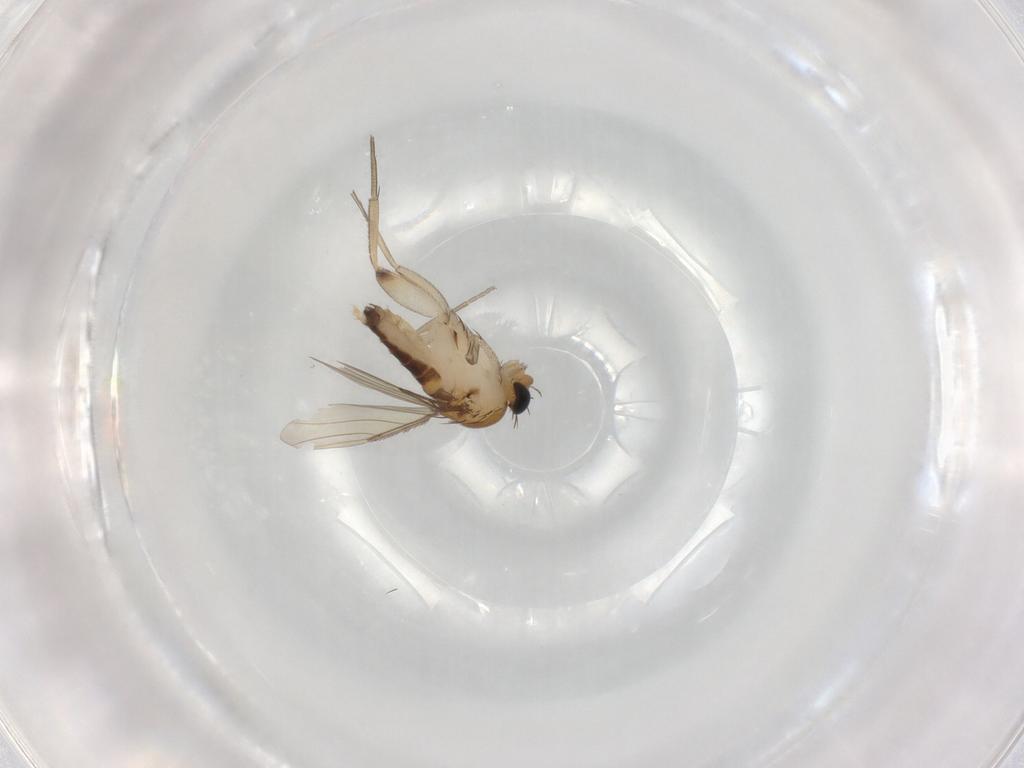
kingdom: Animalia
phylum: Arthropoda
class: Insecta
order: Diptera
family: Phoridae
